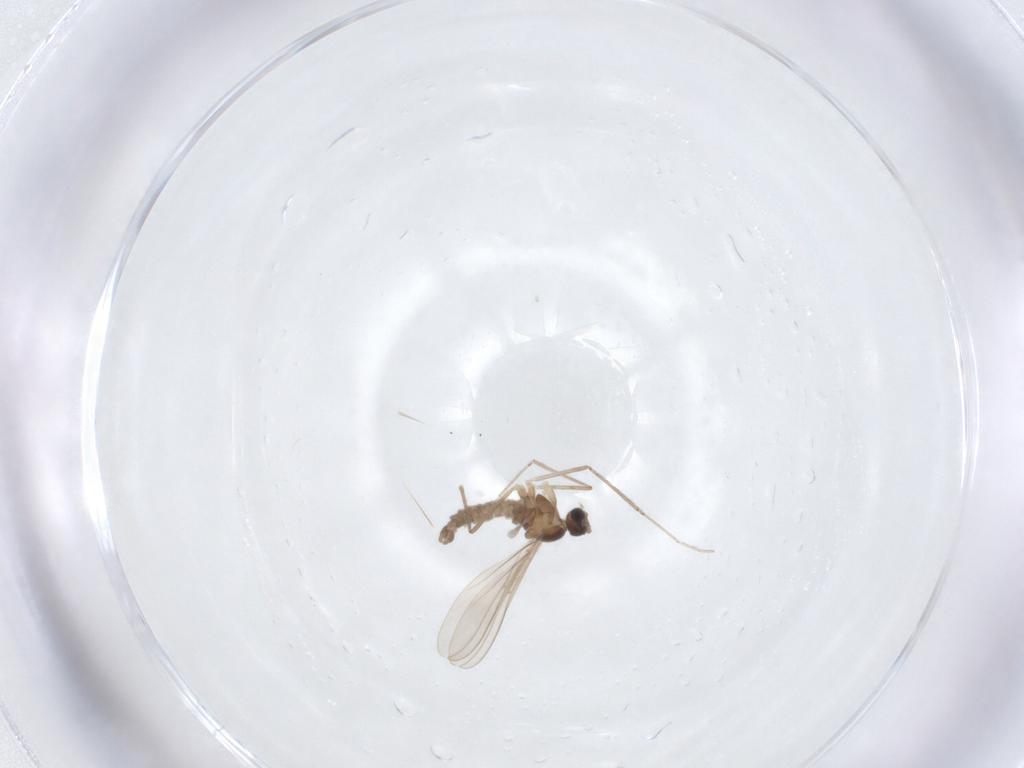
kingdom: Animalia
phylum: Arthropoda
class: Insecta
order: Diptera
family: Cecidomyiidae
